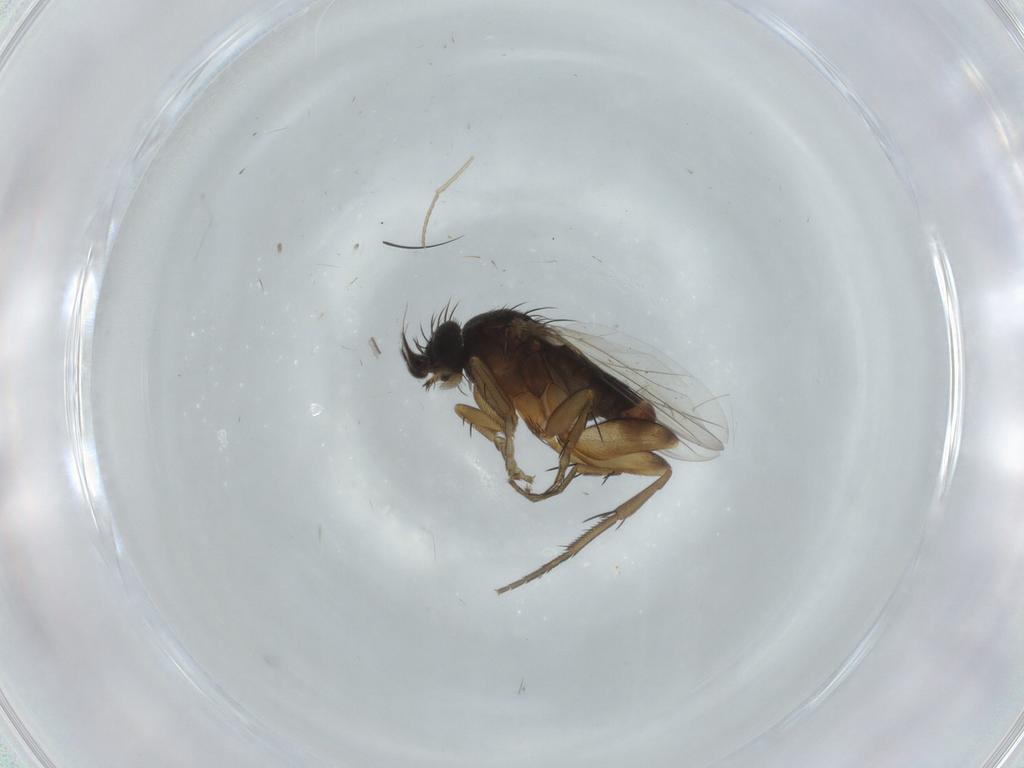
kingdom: Animalia
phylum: Arthropoda
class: Insecta
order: Diptera
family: Phoridae
